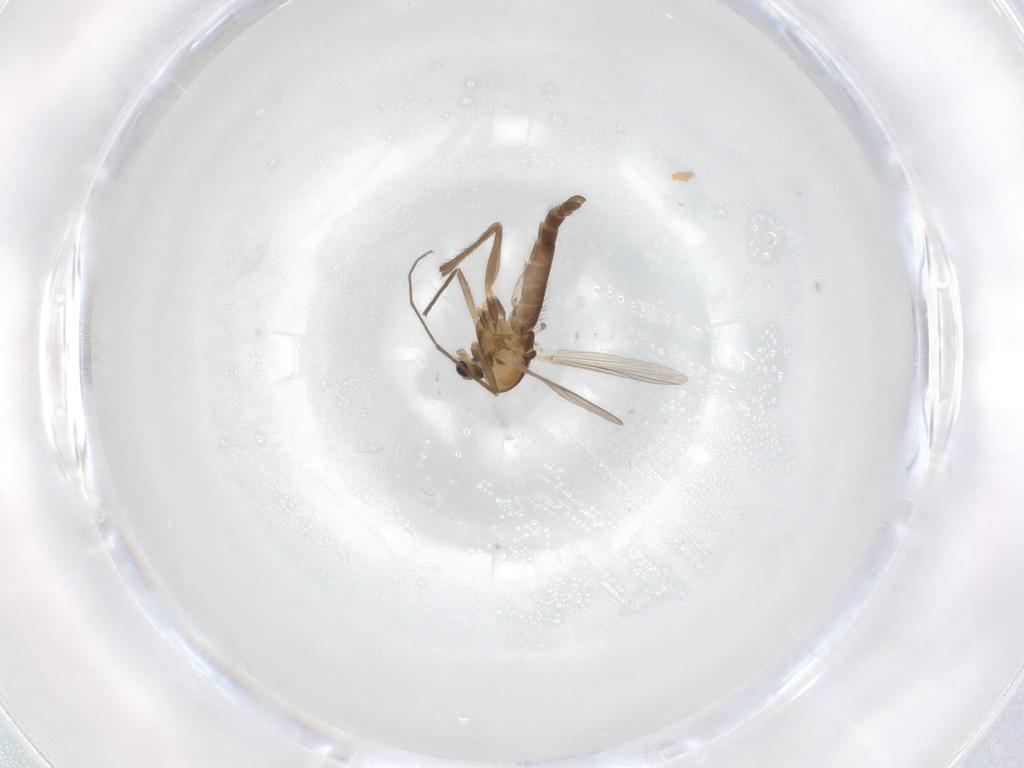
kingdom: Animalia
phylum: Arthropoda
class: Insecta
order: Diptera
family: Chironomidae
